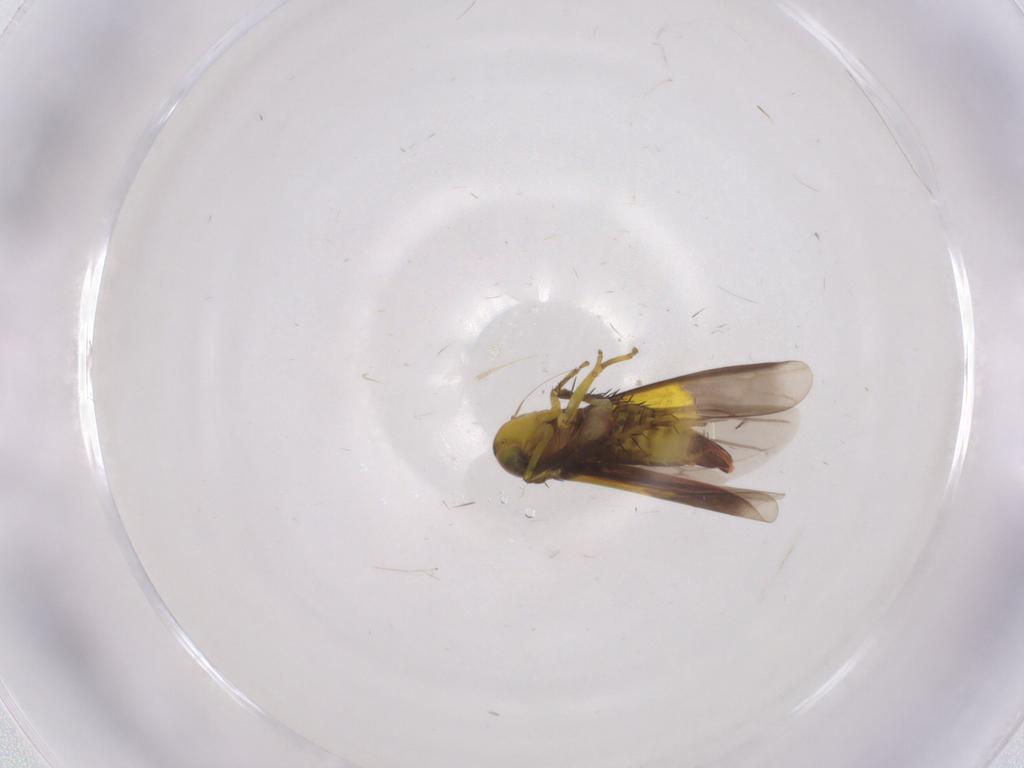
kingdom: Animalia
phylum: Arthropoda
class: Insecta
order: Hemiptera
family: Cicadellidae
